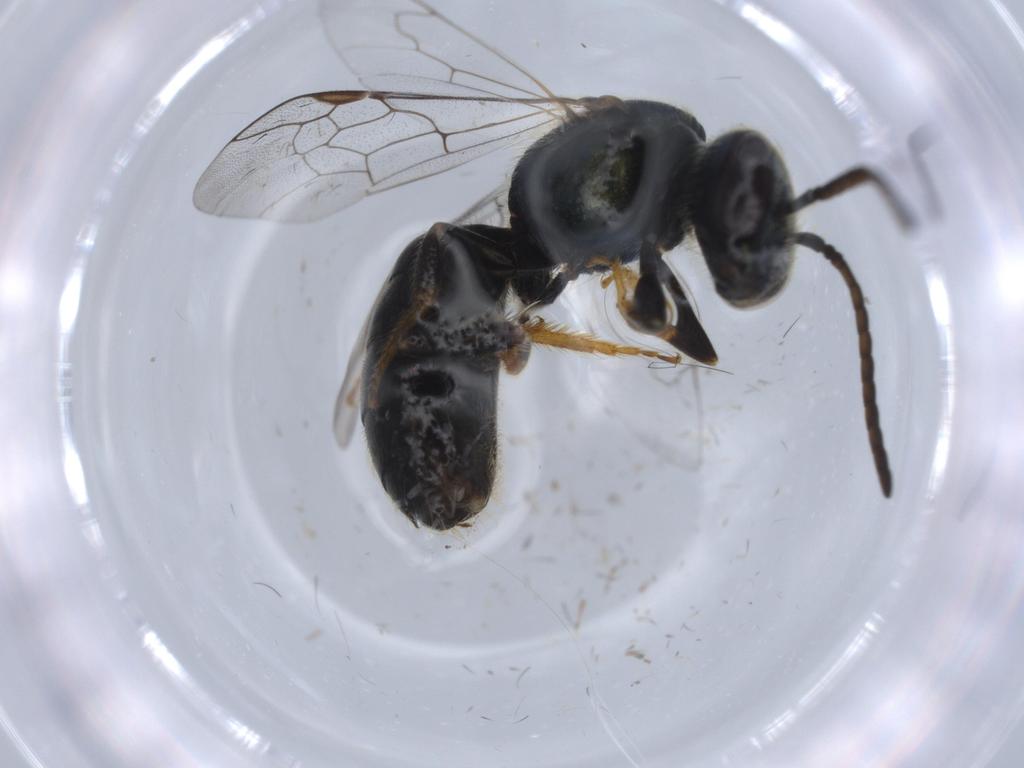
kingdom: Animalia
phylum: Arthropoda
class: Insecta
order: Hymenoptera
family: Halictidae
